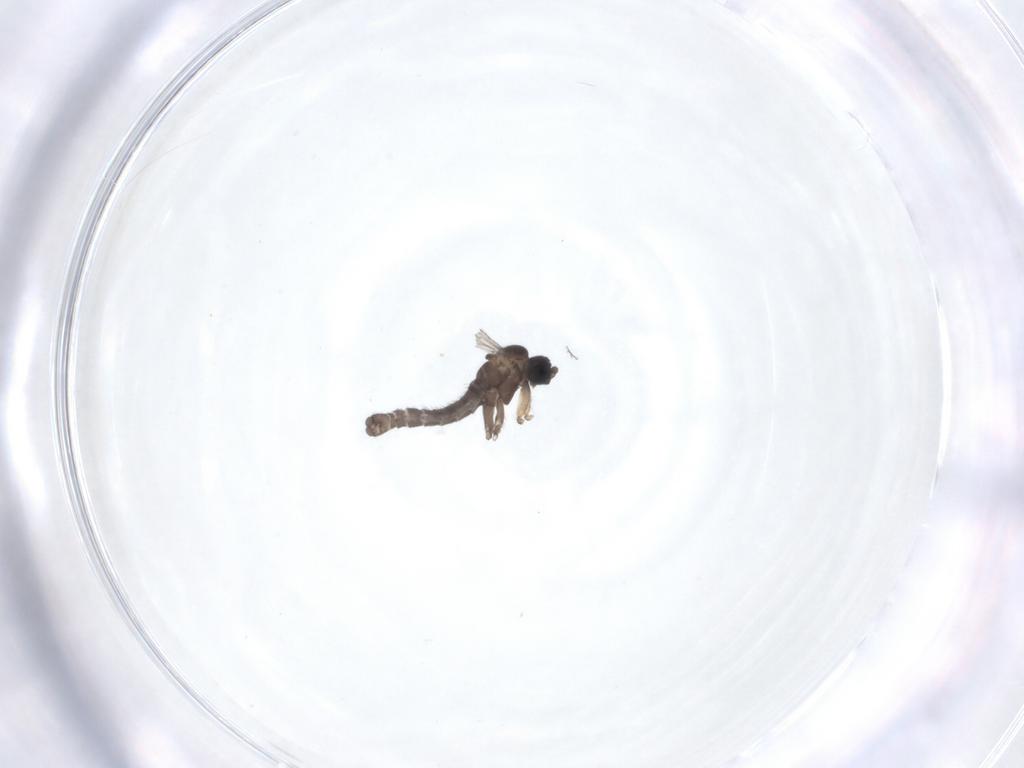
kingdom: Animalia
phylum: Arthropoda
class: Insecta
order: Diptera
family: Sciaridae
